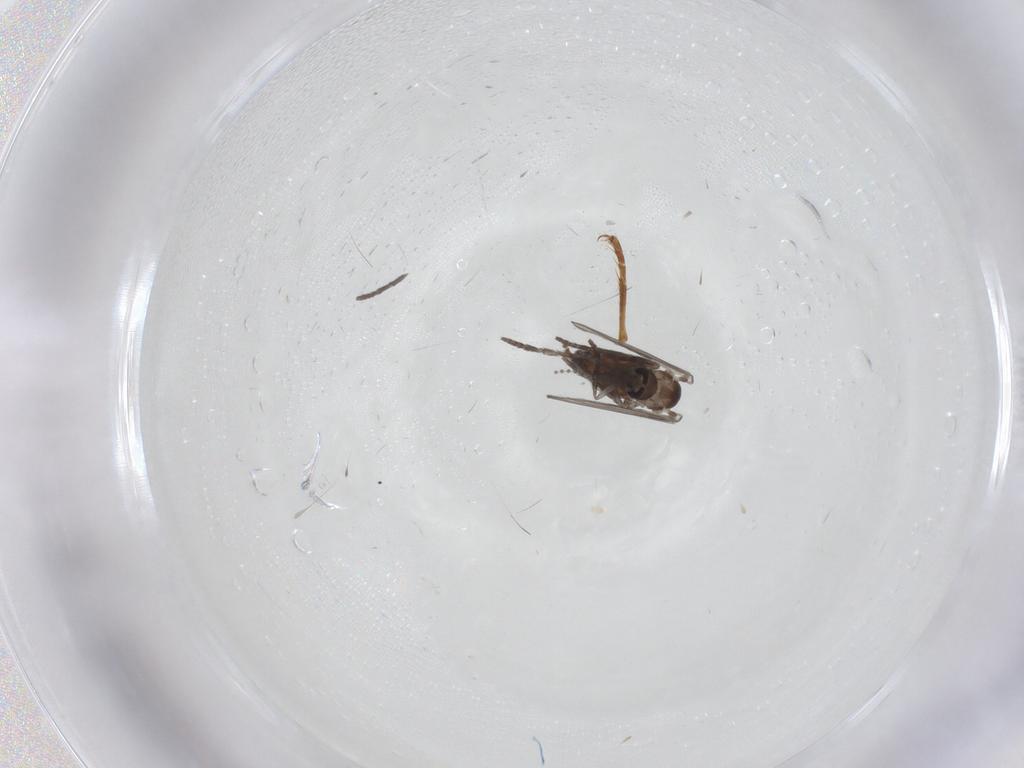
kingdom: Animalia
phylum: Arthropoda
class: Insecta
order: Diptera
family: Psychodidae
